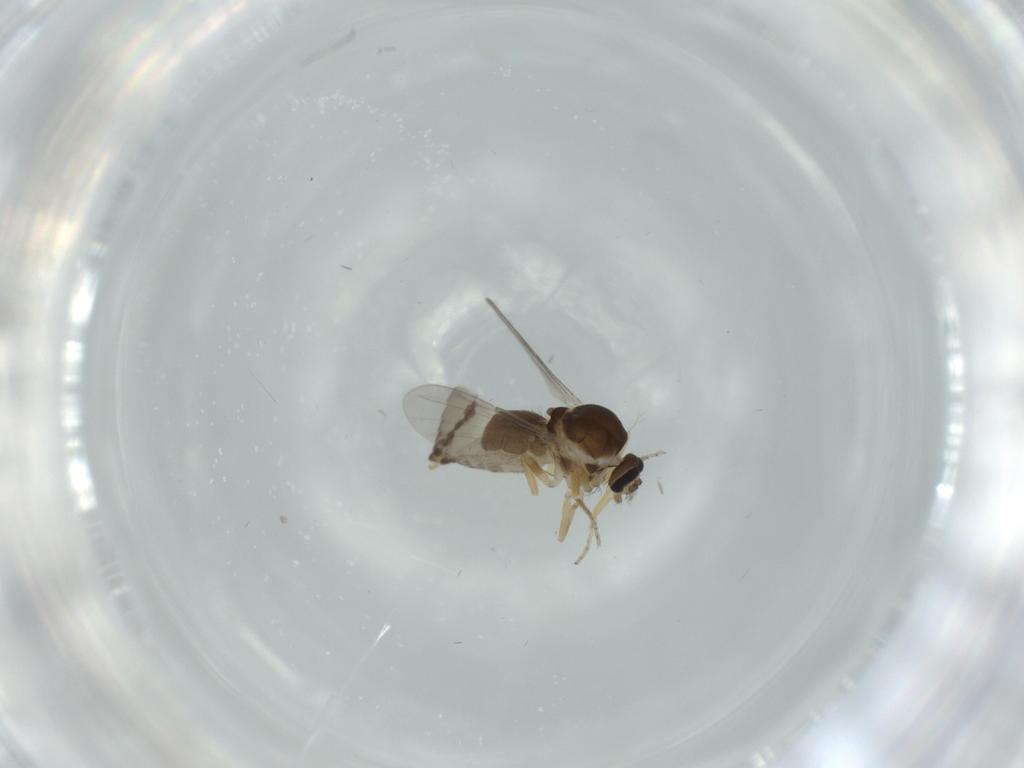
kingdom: Animalia
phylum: Arthropoda
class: Insecta
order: Diptera
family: Ceratopogonidae
